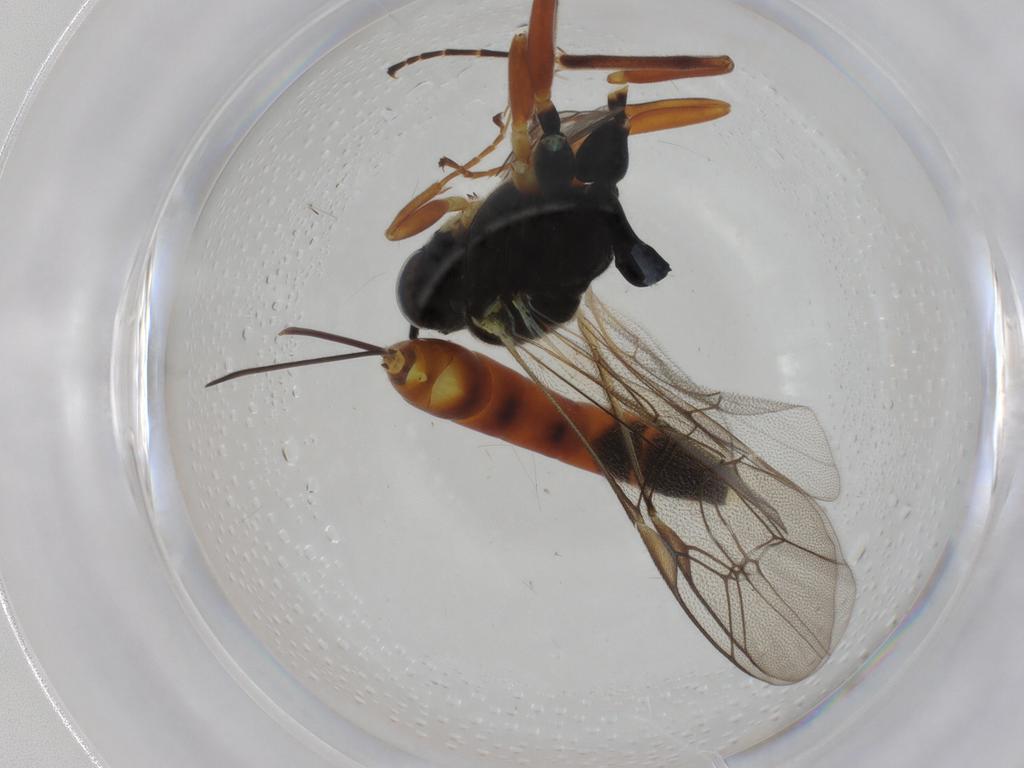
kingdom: Animalia
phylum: Arthropoda
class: Insecta
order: Hymenoptera
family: Ichneumonidae
